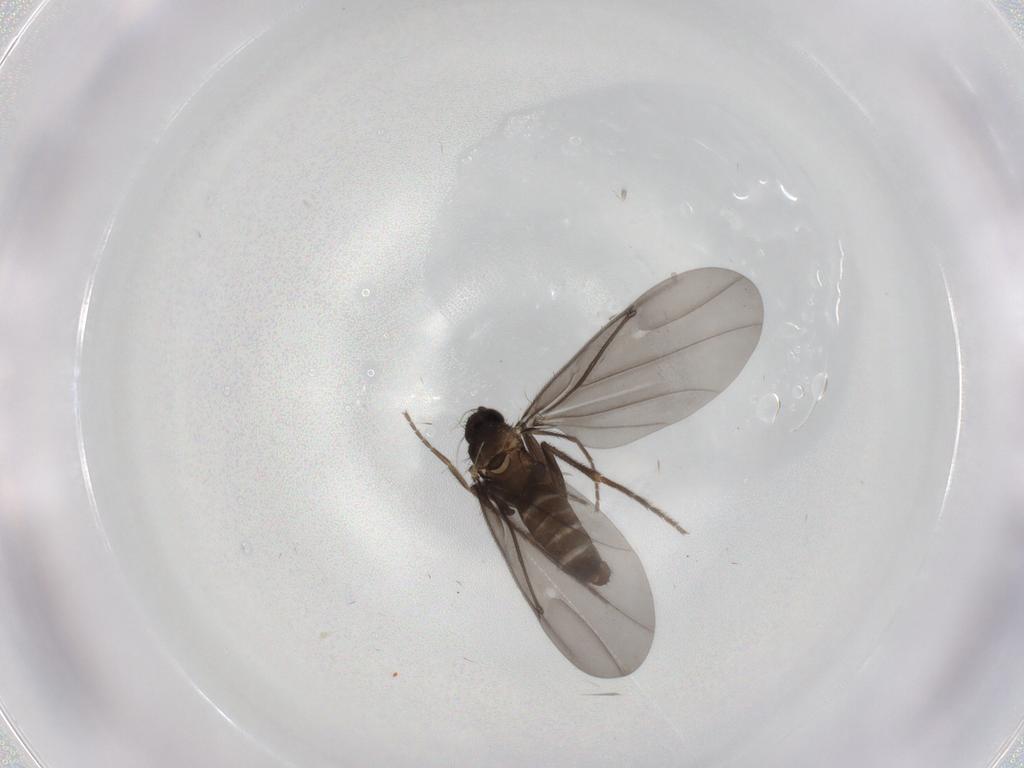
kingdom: Animalia
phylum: Arthropoda
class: Insecta
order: Diptera
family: Phoridae
